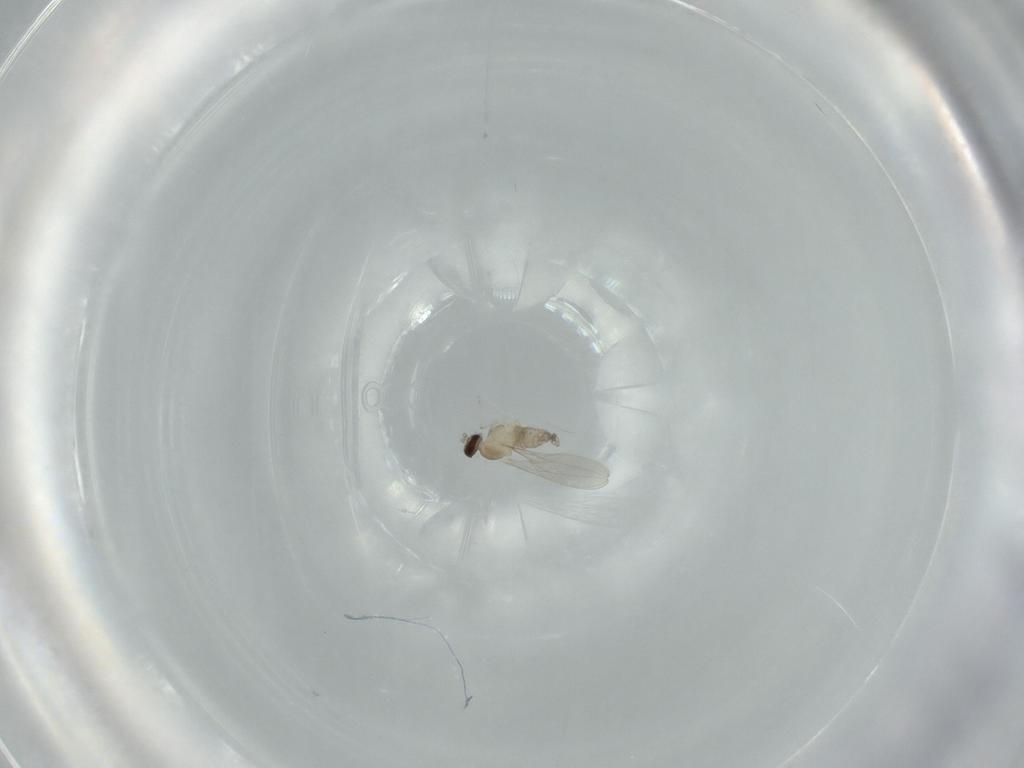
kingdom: Animalia
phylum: Arthropoda
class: Insecta
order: Diptera
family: Cecidomyiidae
